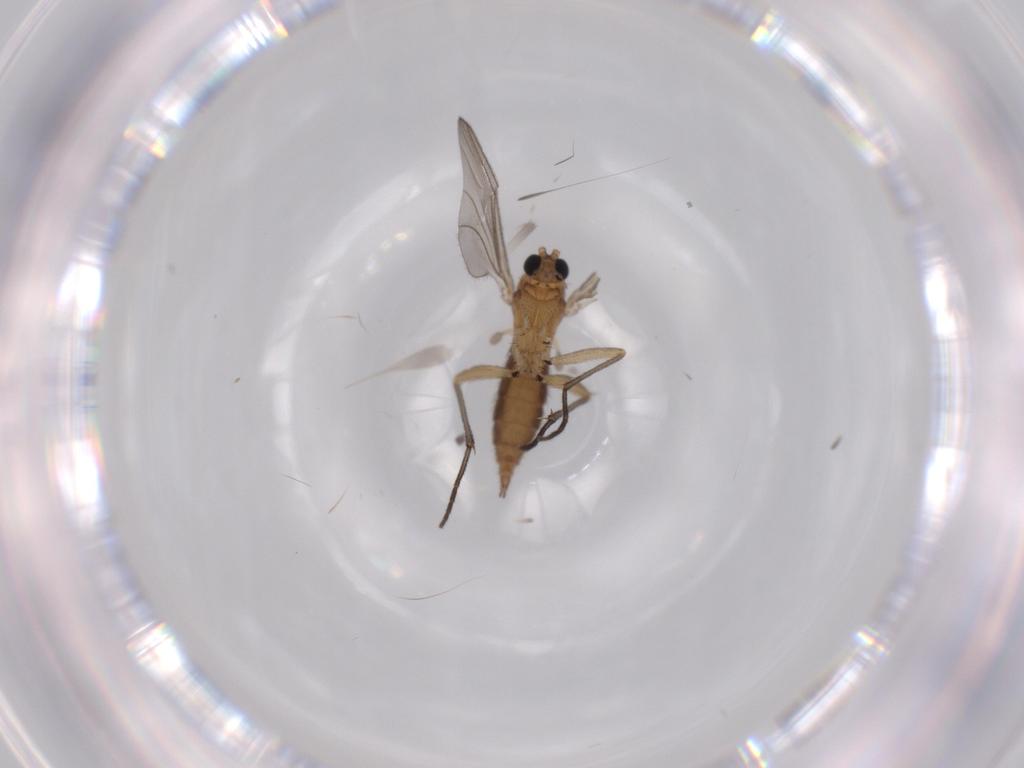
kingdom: Animalia
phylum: Arthropoda
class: Insecta
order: Diptera
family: Sciaridae
